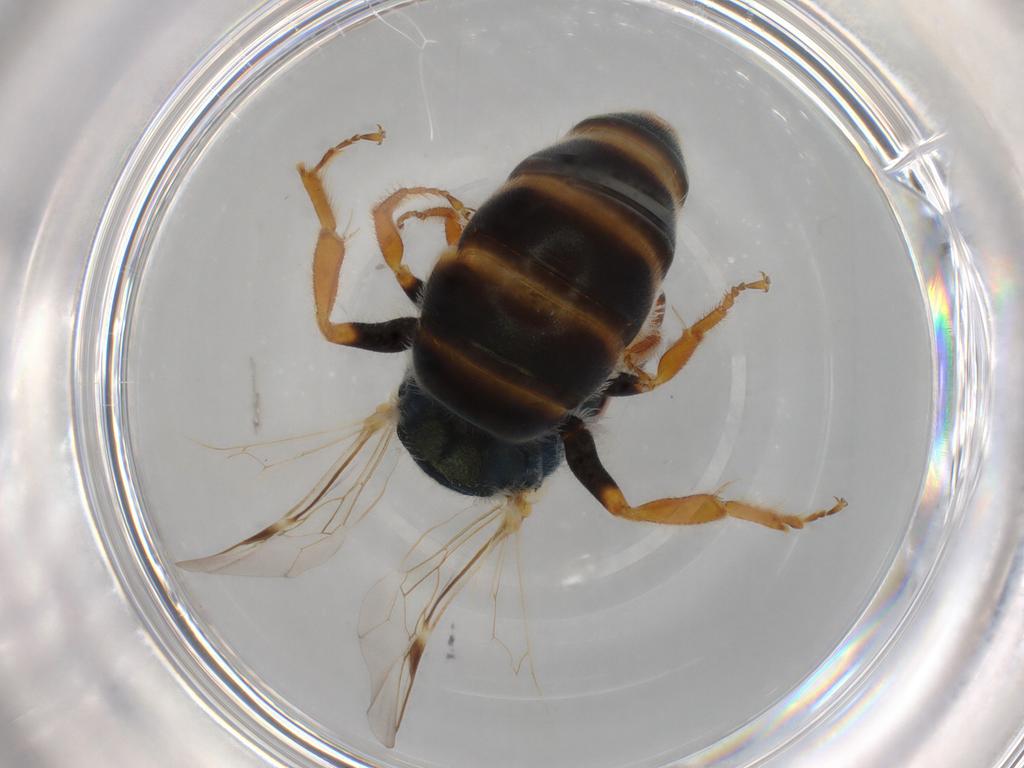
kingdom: Animalia
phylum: Arthropoda
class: Insecta
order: Hymenoptera
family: Halictidae
